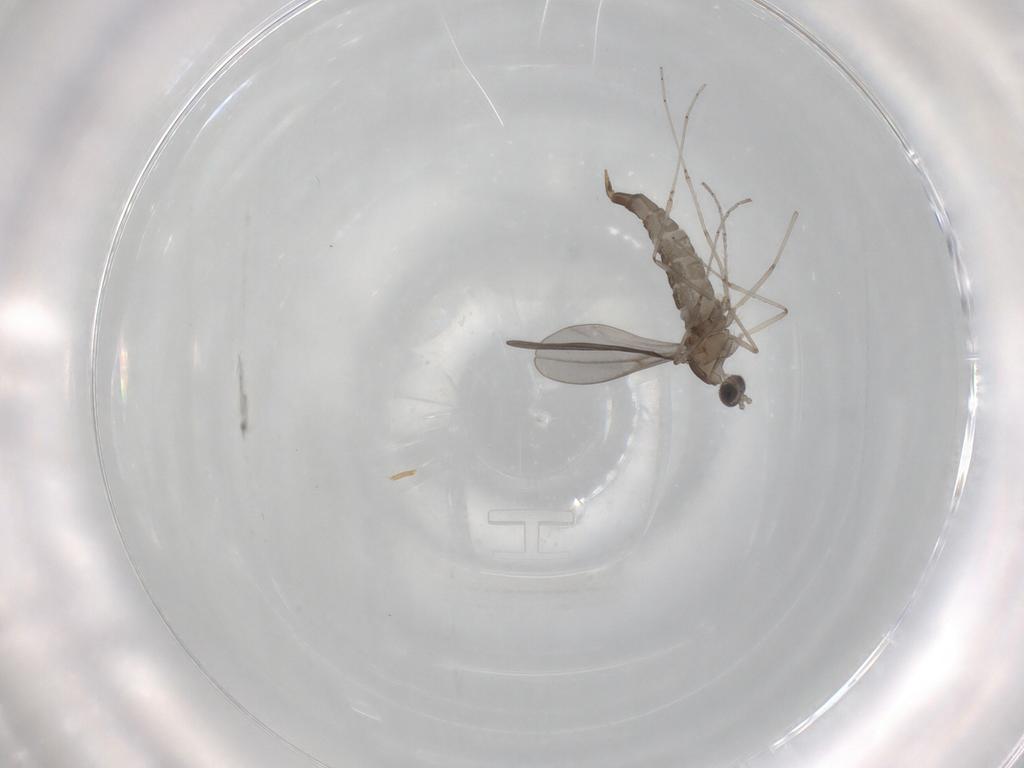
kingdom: Animalia
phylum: Arthropoda
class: Insecta
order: Diptera
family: Cecidomyiidae
